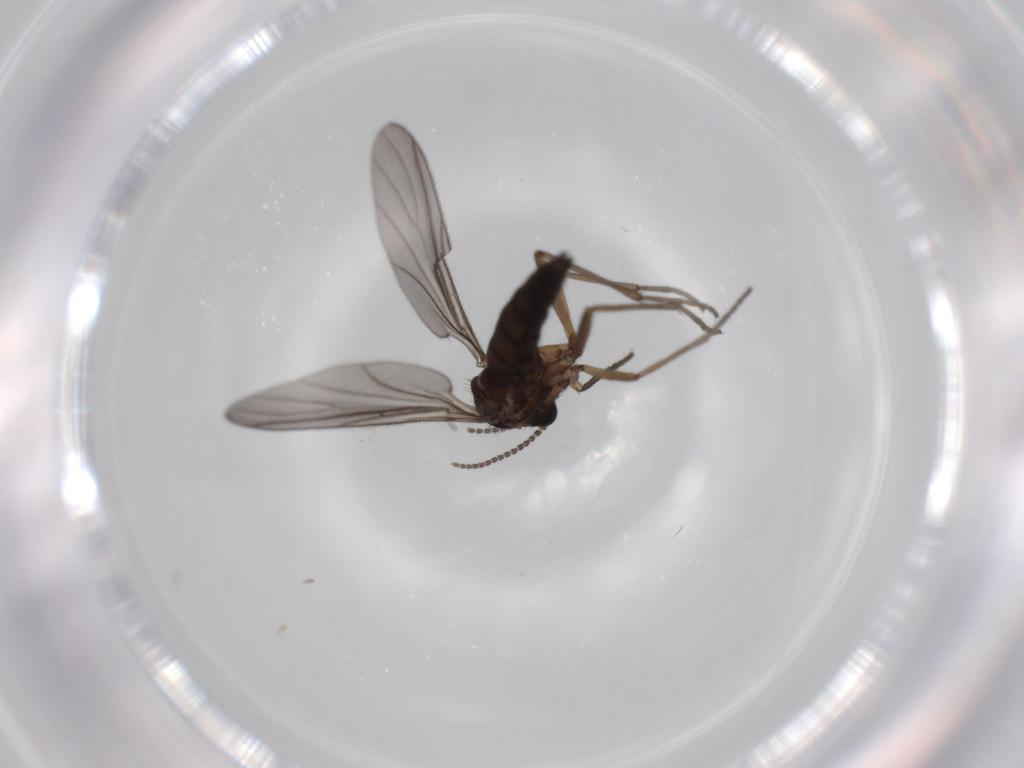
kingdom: Animalia
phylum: Arthropoda
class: Insecta
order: Diptera
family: Sciaridae
